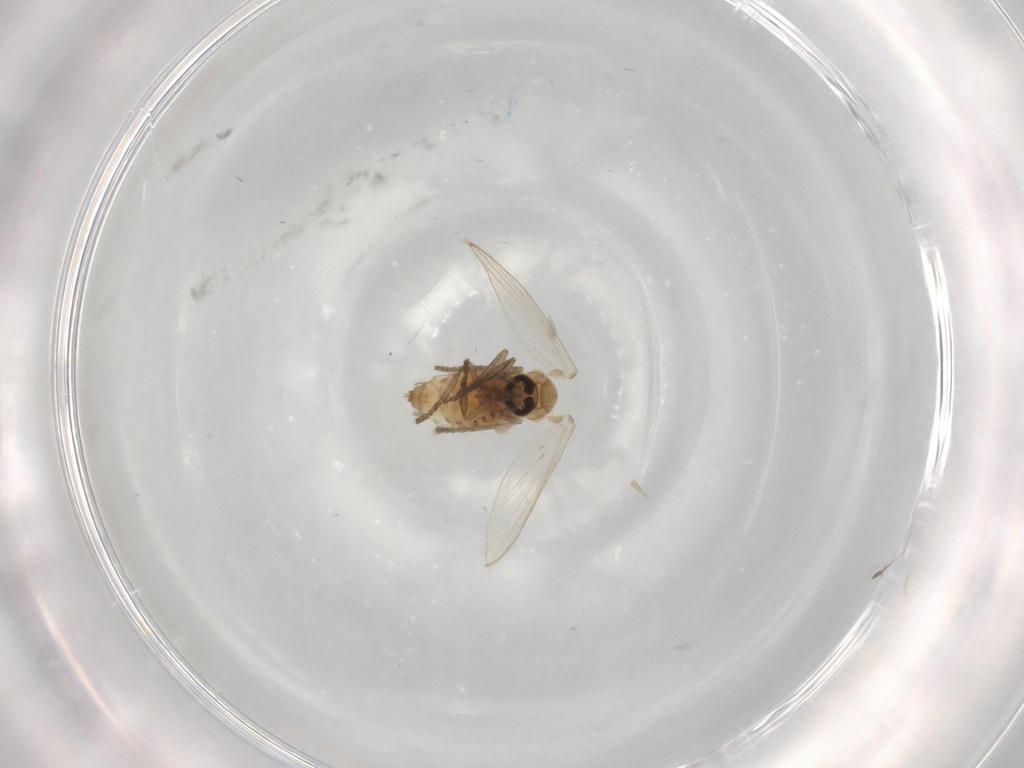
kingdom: Animalia
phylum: Arthropoda
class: Insecta
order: Diptera
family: Psychodidae
